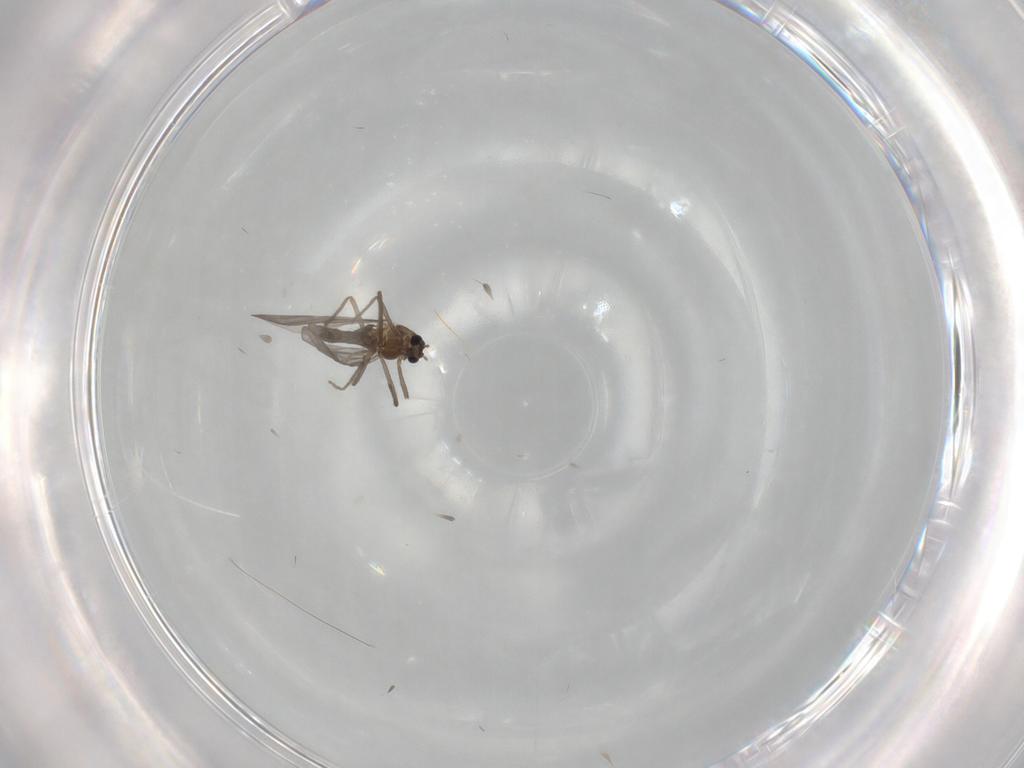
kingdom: Animalia
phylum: Arthropoda
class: Insecta
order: Diptera
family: Chironomidae
